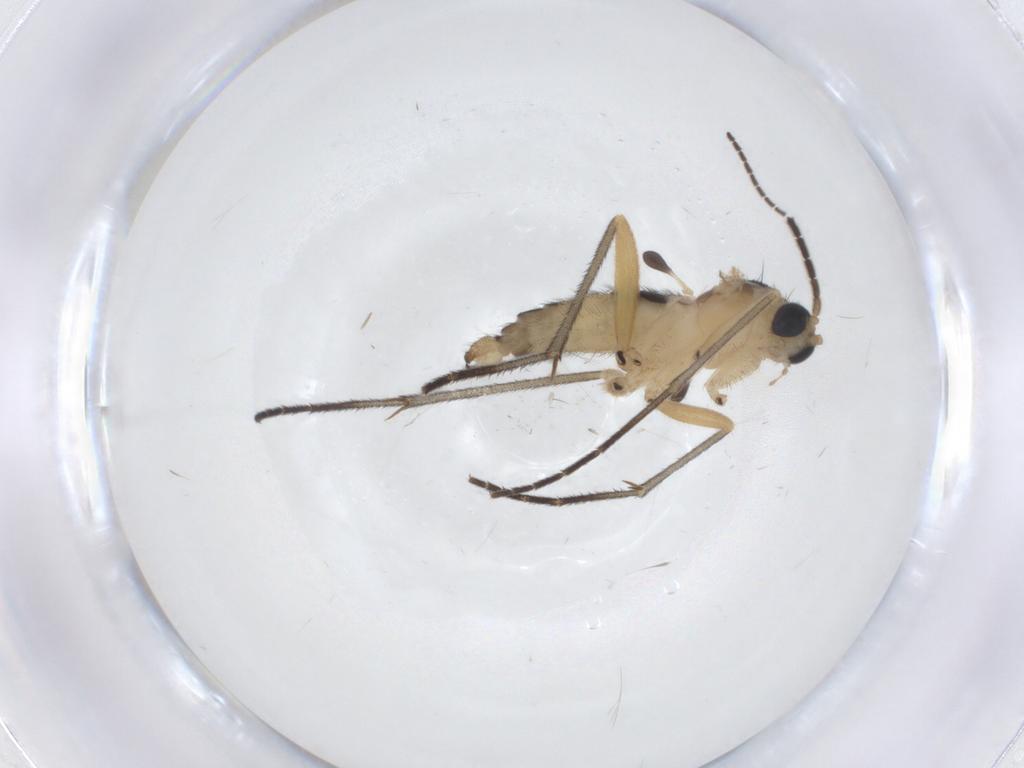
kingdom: Animalia
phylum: Arthropoda
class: Insecta
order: Diptera
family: Sciaridae
